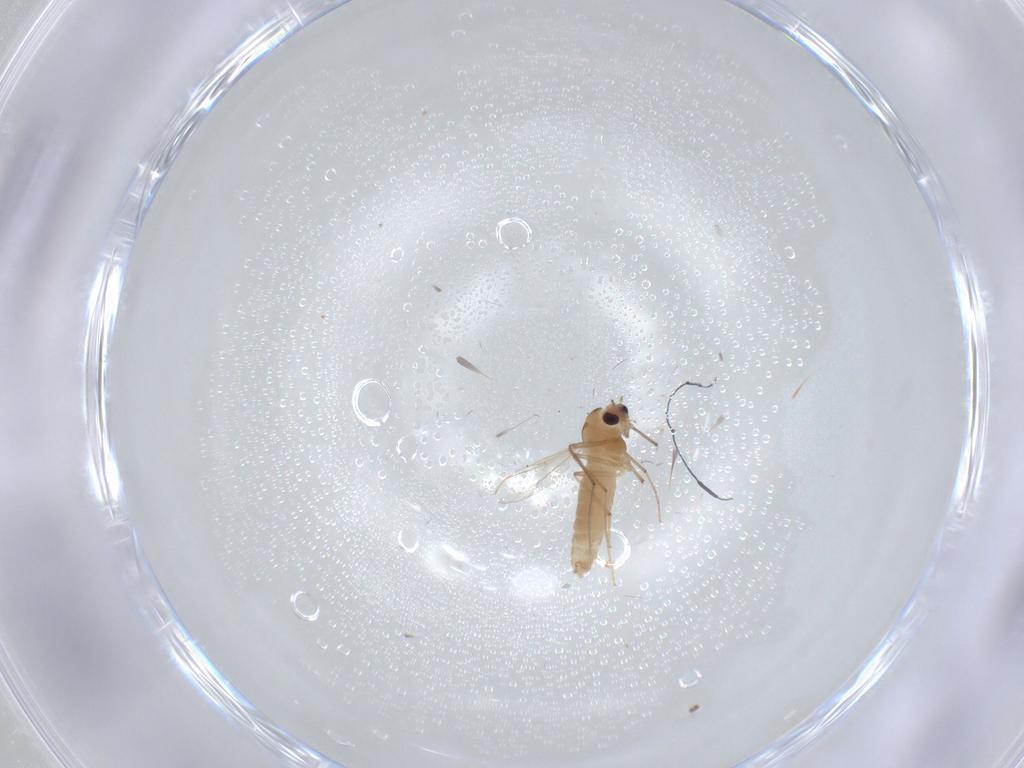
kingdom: Animalia
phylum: Arthropoda
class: Insecta
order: Diptera
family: Chironomidae
